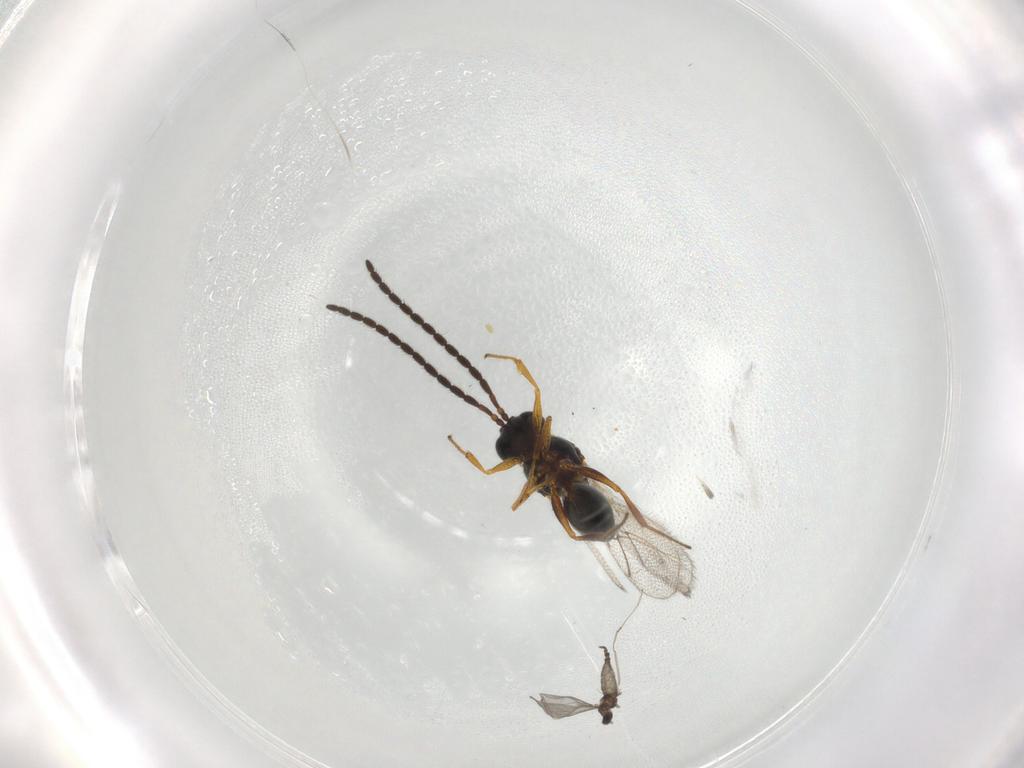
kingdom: Animalia
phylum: Arthropoda
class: Insecta
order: Diptera
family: Cecidomyiidae
